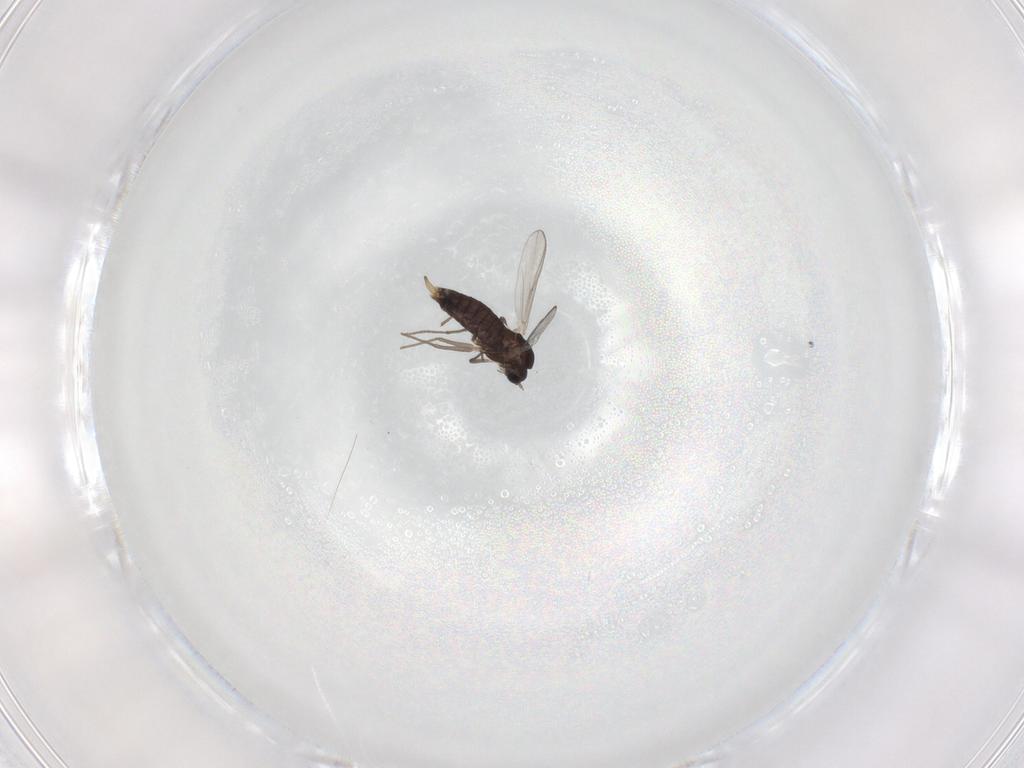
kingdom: Animalia
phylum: Arthropoda
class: Insecta
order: Diptera
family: Chironomidae
